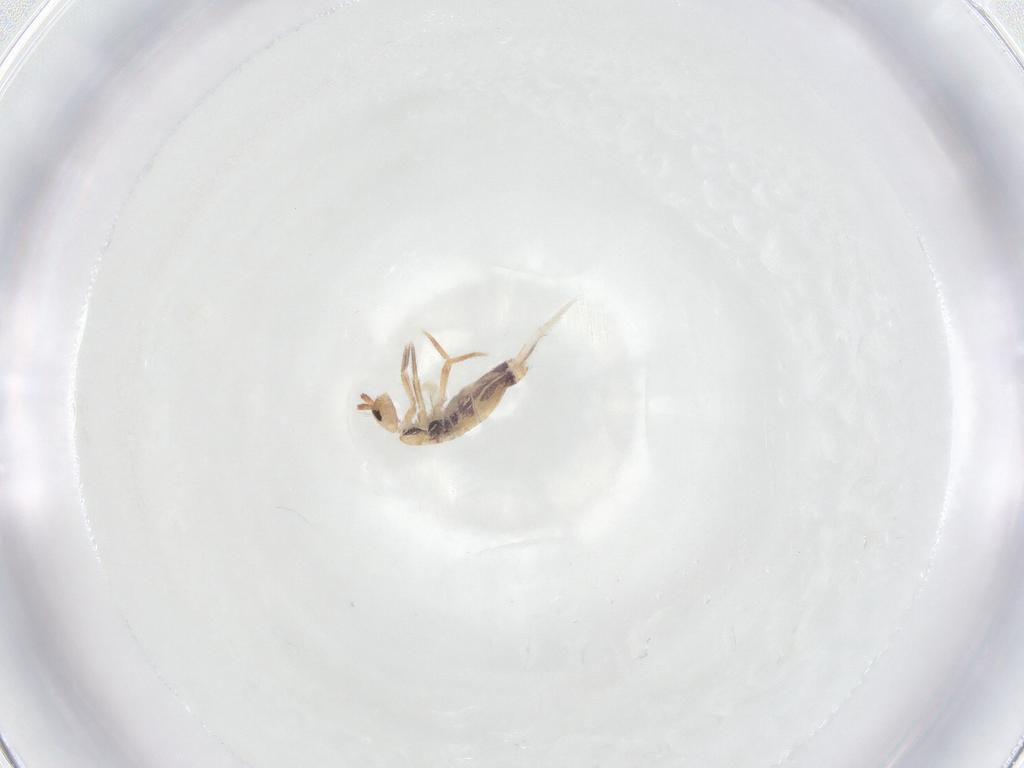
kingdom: Animalia
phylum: Arthropoda
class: Collembola
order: Entomobryomorpha
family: Entomobryidae
